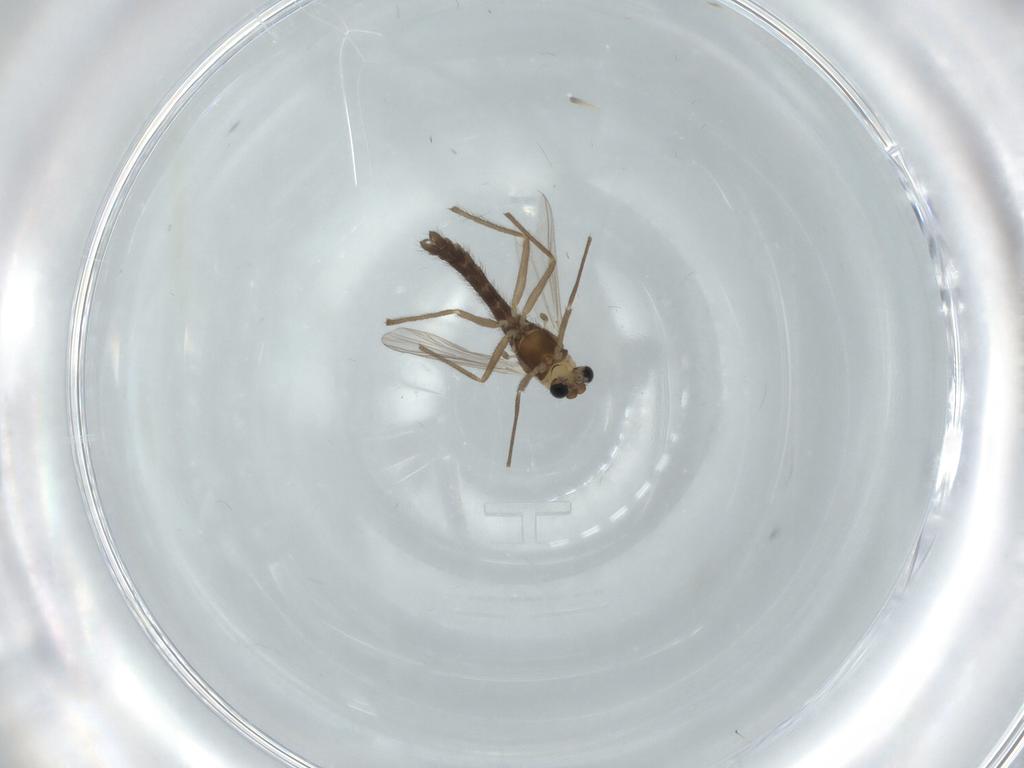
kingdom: Animalia
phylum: Arthropoda
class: Insecta
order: Diptera
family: Chironomidae
